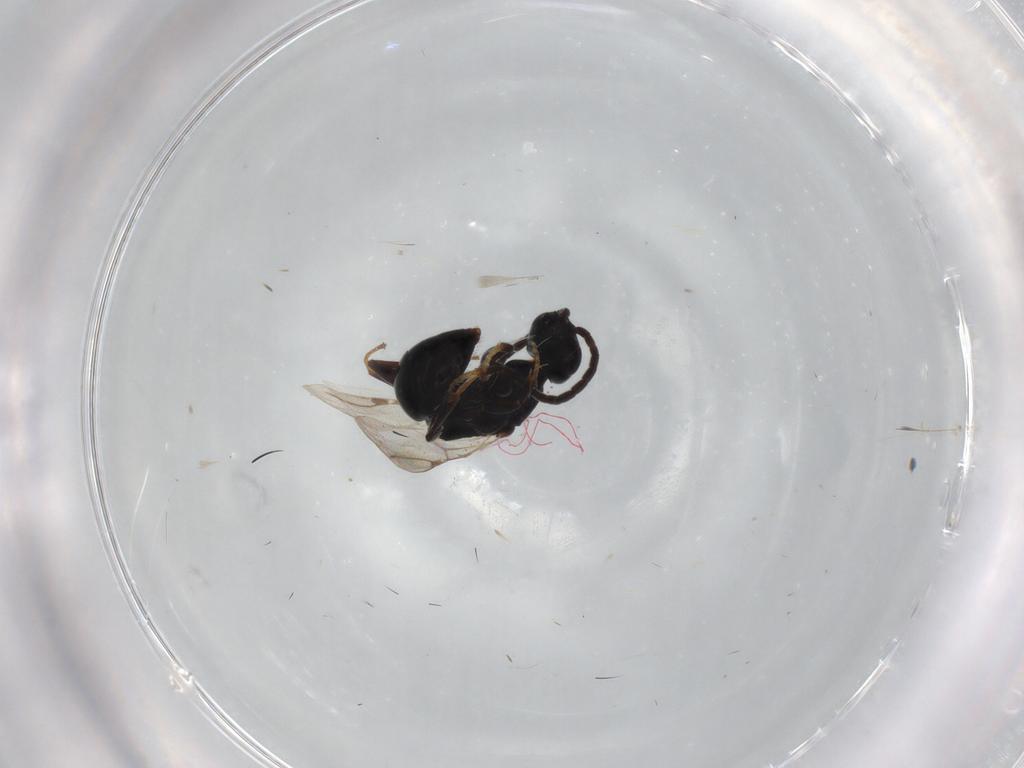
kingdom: Animalia
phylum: Arthropoda
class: Insecta
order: Hymenoptera
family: Bethylidae
